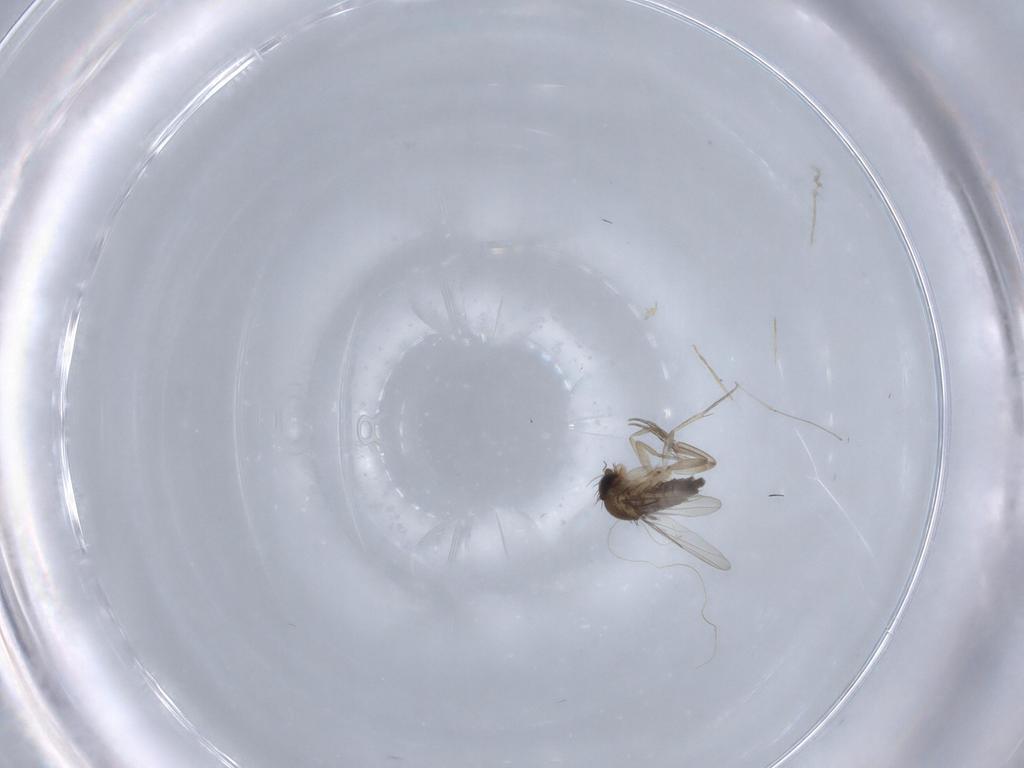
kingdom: Animalia
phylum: Arthropoda
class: Insecta
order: Diptera
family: Phoridae
